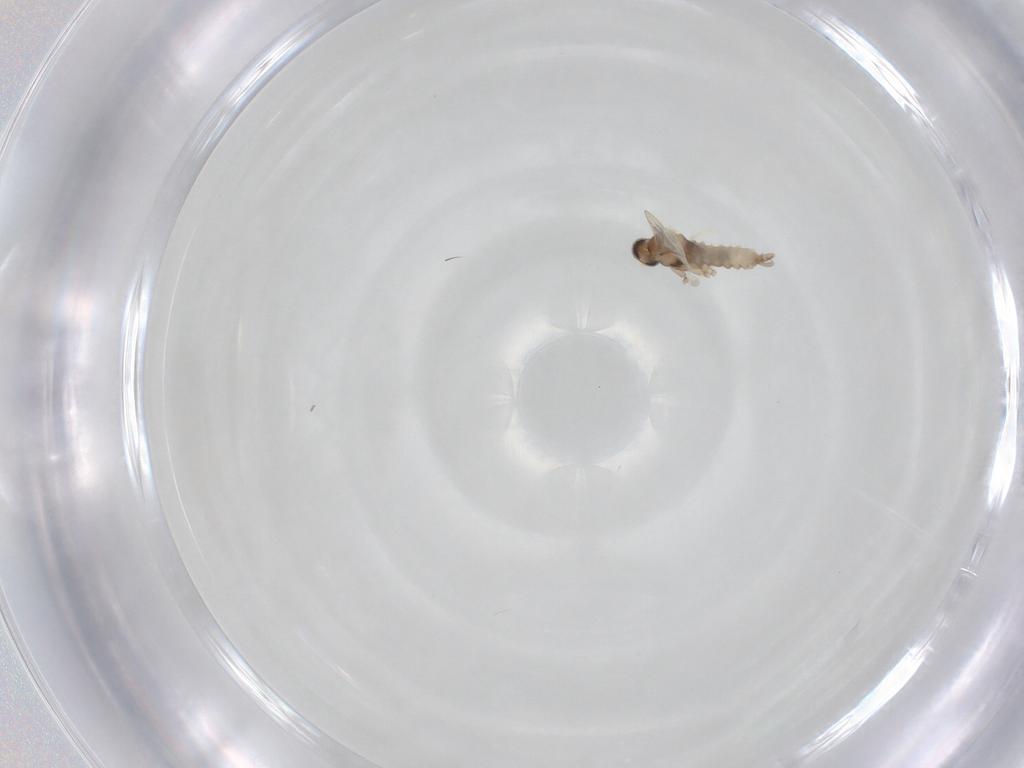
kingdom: Animalia
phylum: Arthropoda
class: Insecta
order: Diptera
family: Cecidomyiidae
